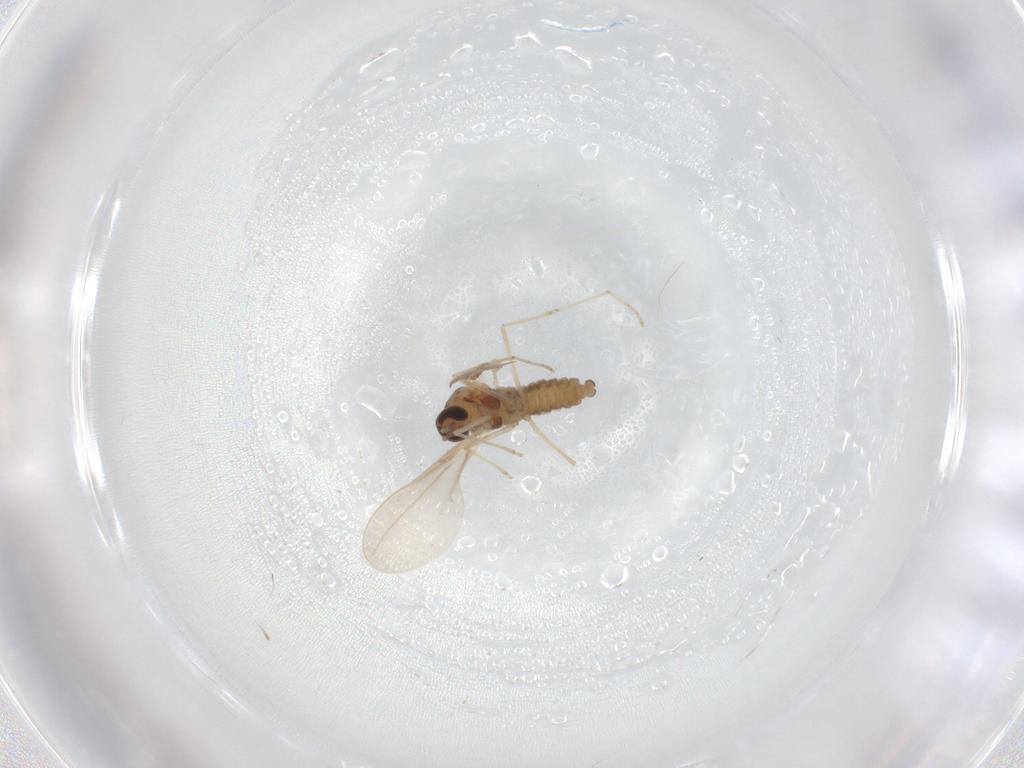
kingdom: Animalia
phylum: Arthropoda
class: Insecta
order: Diptera
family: Cecidomyiidae
